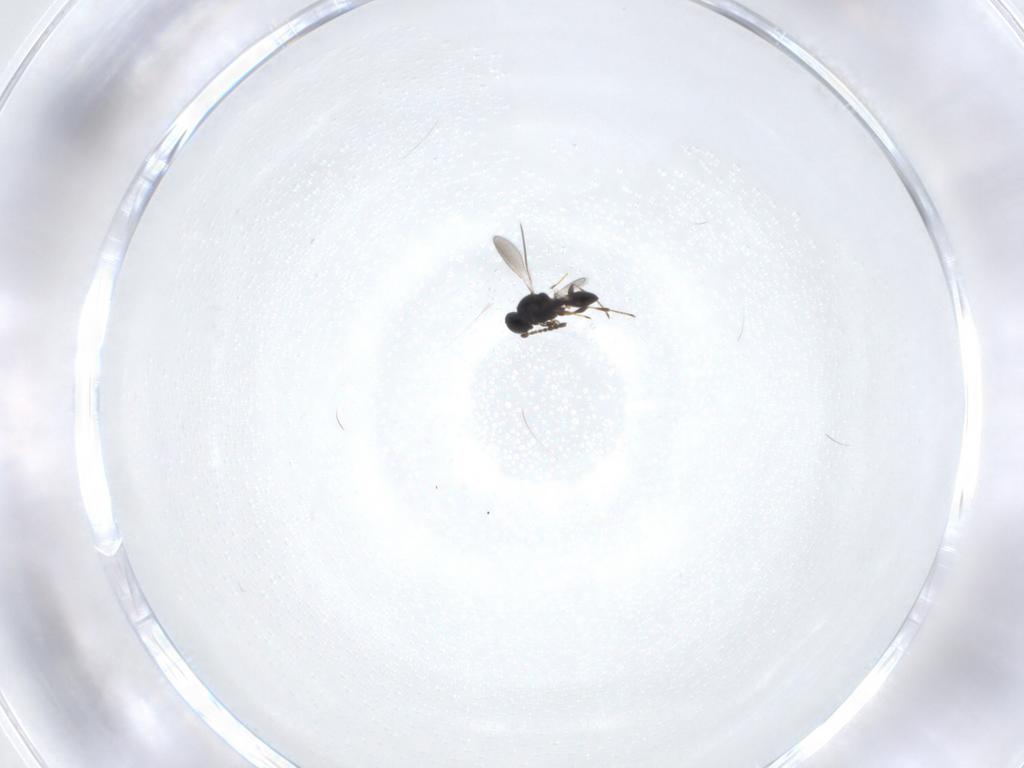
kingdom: Animalia
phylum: Arthropoda
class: Insecta
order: Hymenoptera
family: Platygastridae
